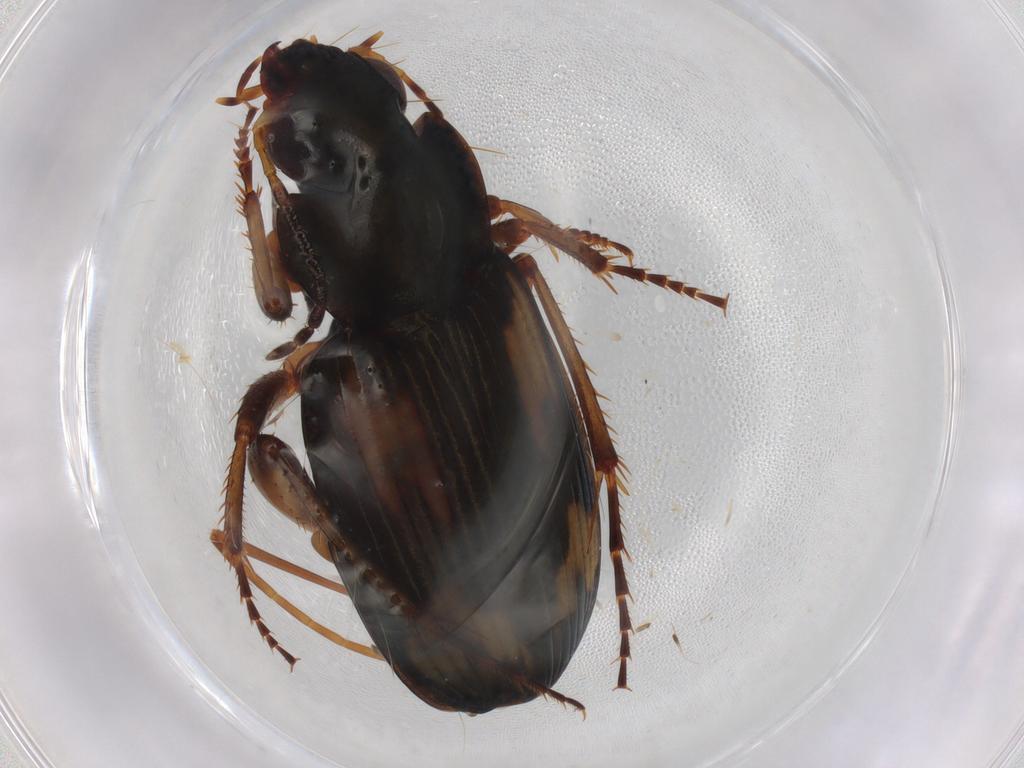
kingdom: Animalia
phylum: Arthropoda
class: Insecta
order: Coleoptera
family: Carabidae
